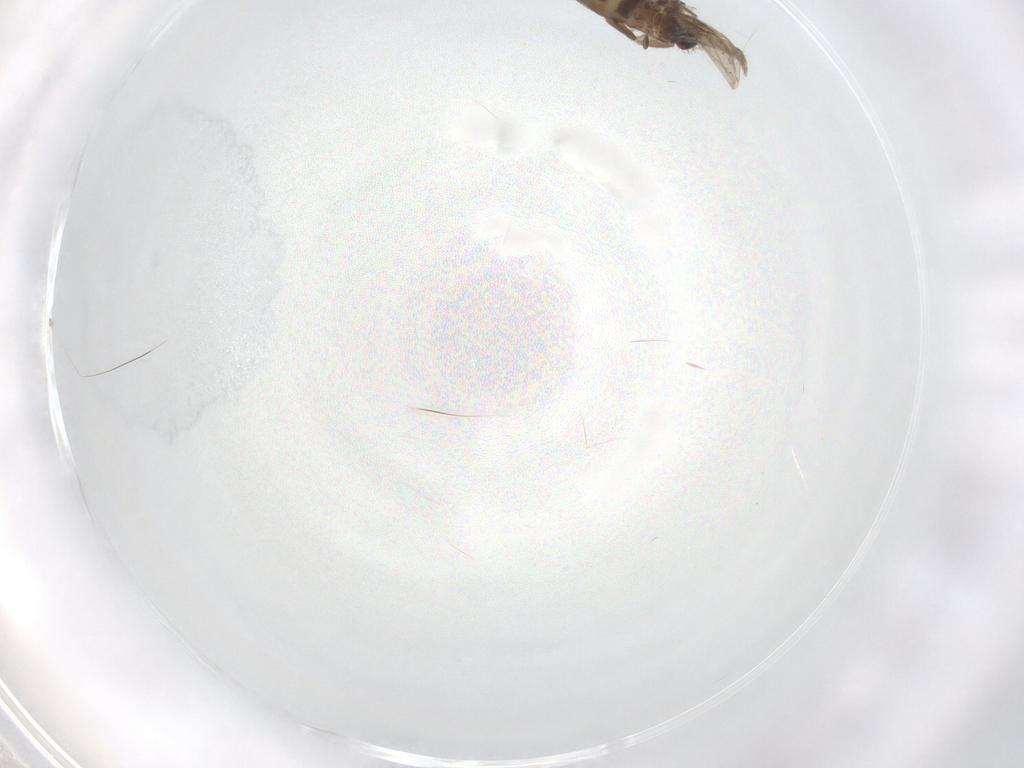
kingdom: Animalia
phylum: Arthropoda
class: Insecta
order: Diptera
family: Phoridae
